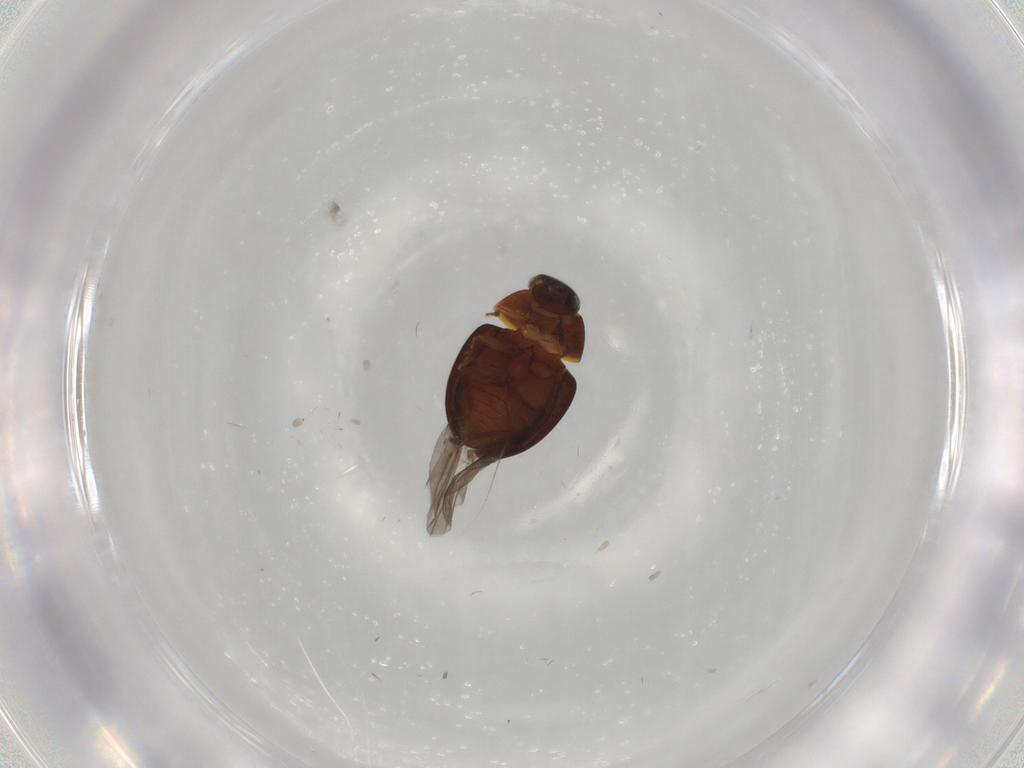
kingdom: Animalia
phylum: Arthropoda
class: Insecta
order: Coleoptera
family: Leiodidae
